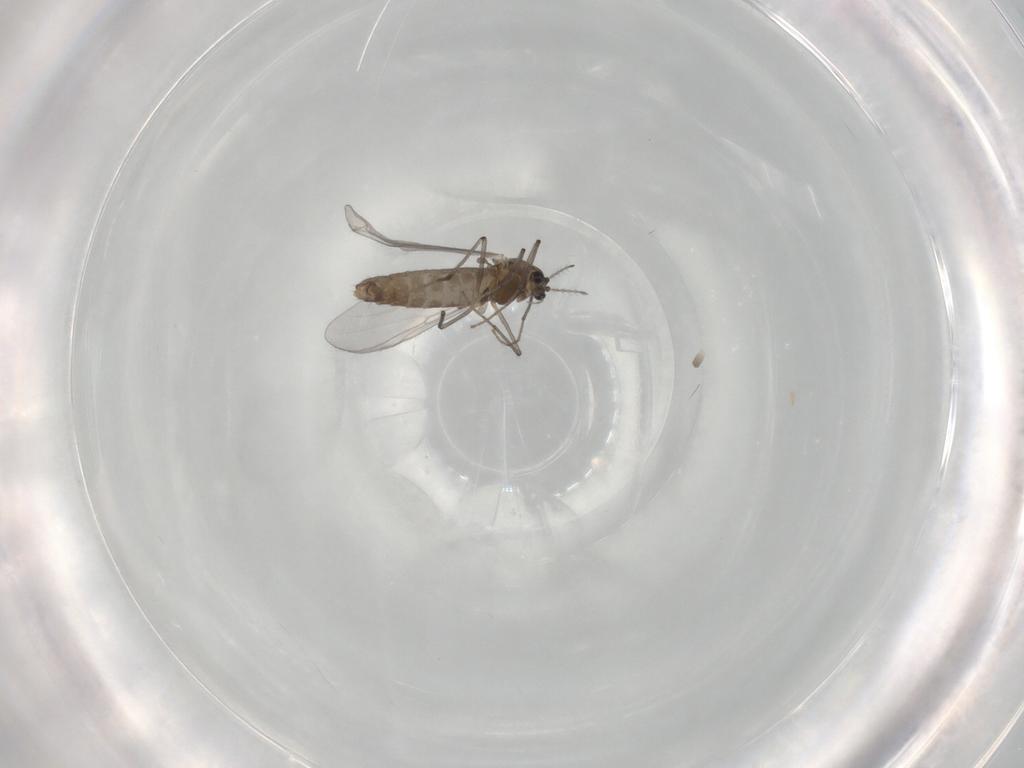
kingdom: Animalia
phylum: Arthropoda
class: Insecta
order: Diptera
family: Chironomidae
